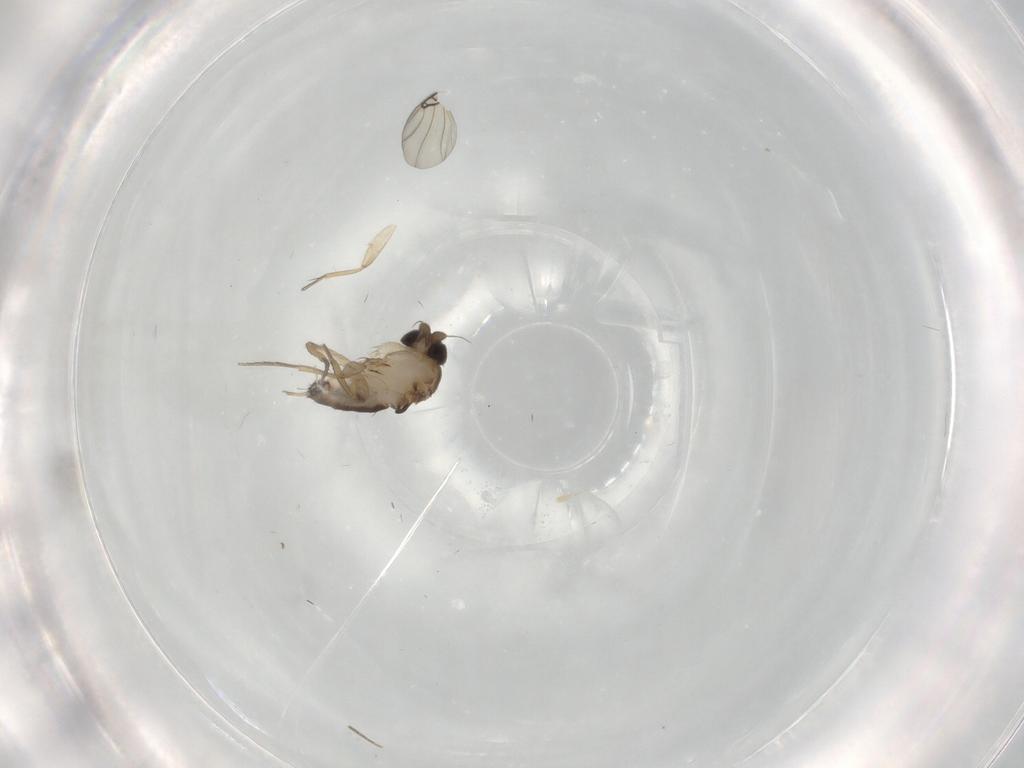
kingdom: Animalia
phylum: Arthropoda
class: Insecta
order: Diptera
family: Phoridae
